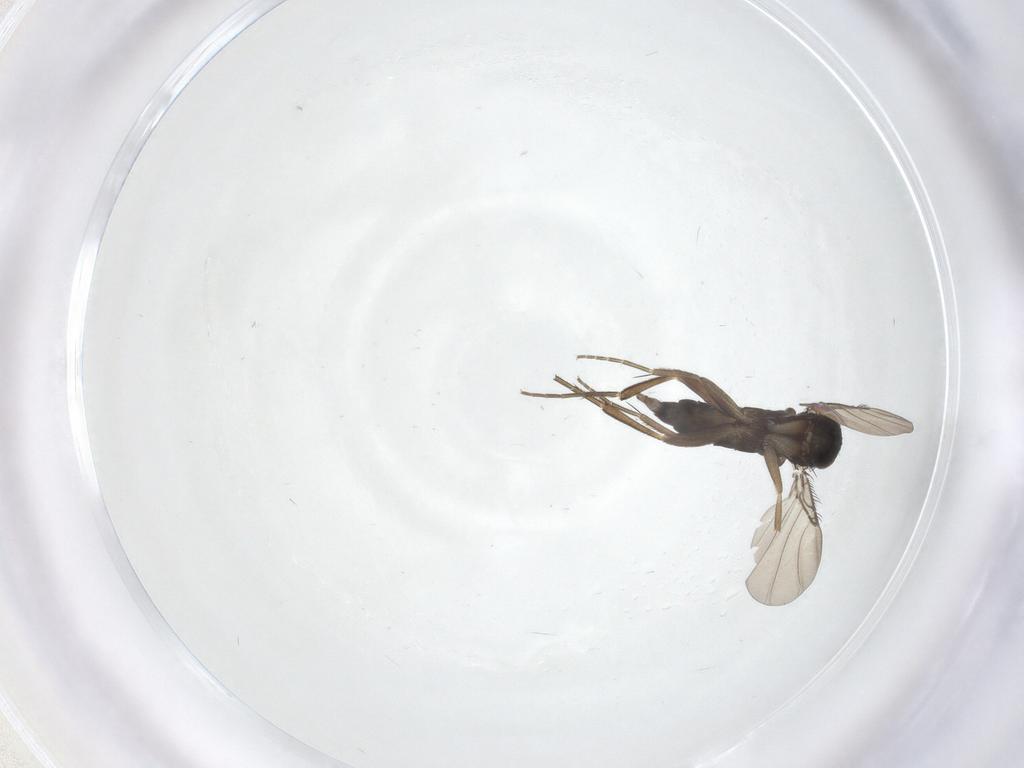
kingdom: Animalia
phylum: Arthropoda
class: Insecta
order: Diptera
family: Phoridae
